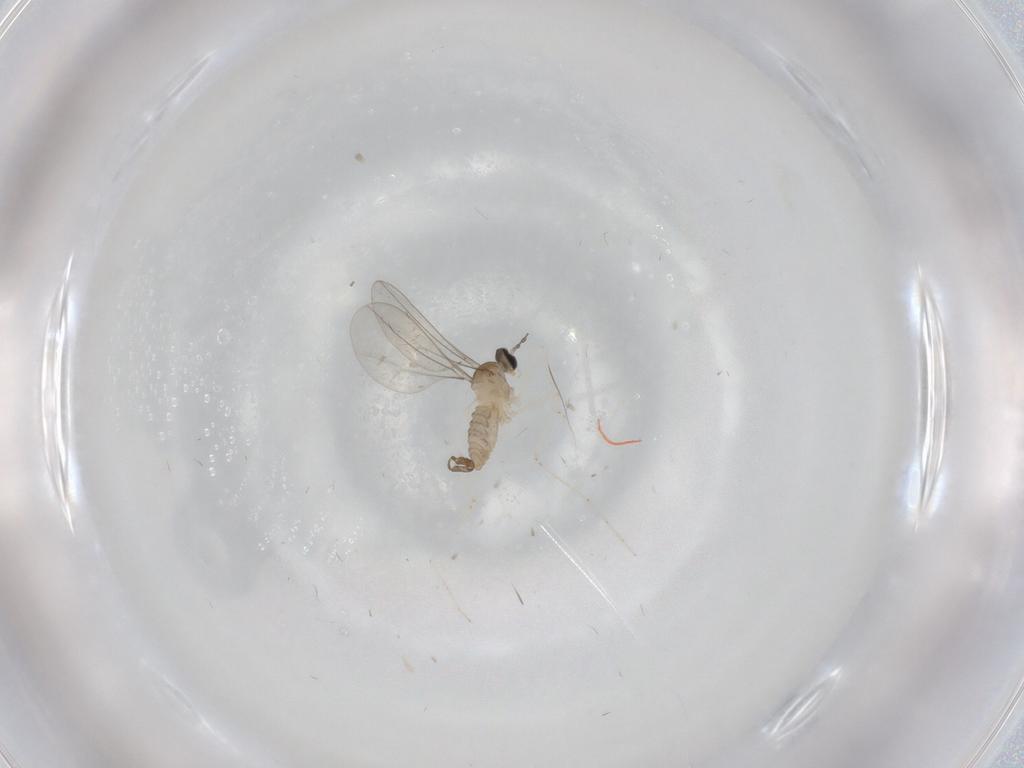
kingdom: Animalia
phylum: Arthropoda
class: Insecta
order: Diptera
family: Cecidomyiidae
